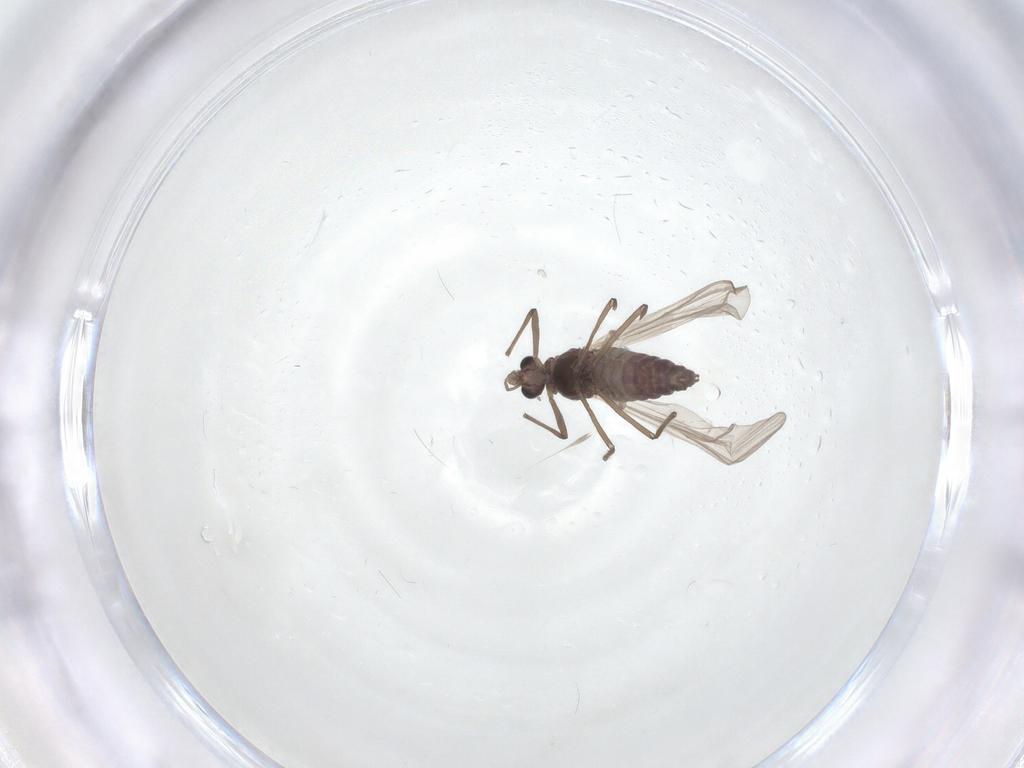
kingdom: Animalia
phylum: Arthropoda
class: Insecta
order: Diptera
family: Chironomidae
